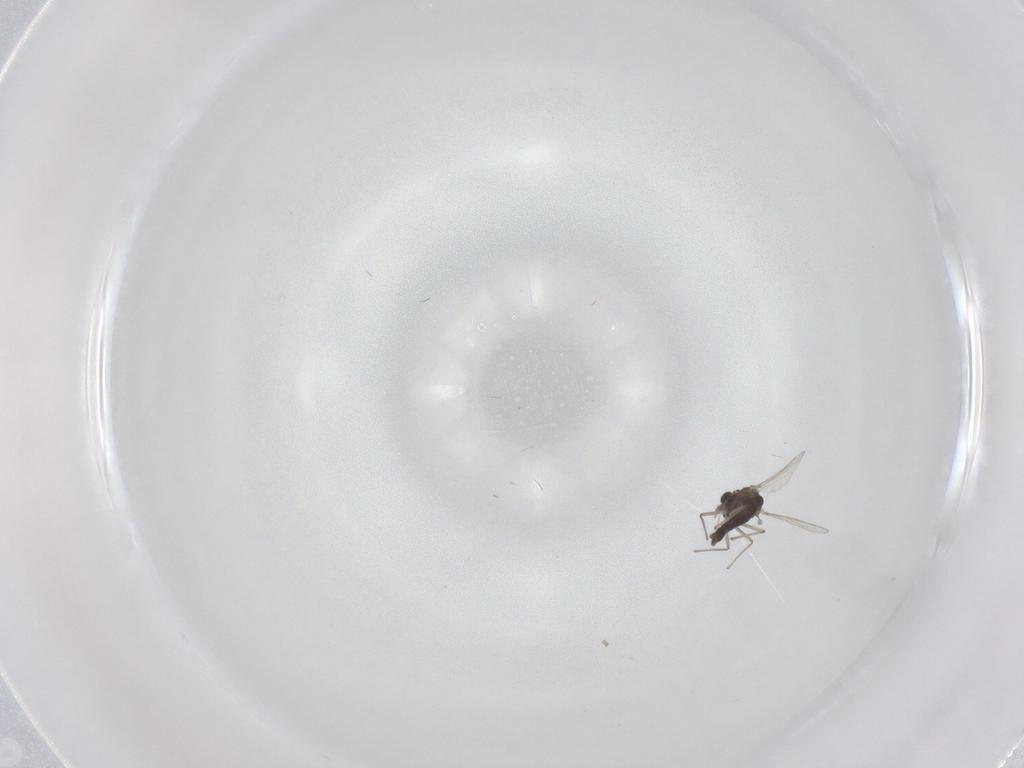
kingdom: Animalia
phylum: Arthropoda
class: Insecta
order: Diptera
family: Chironomidae
